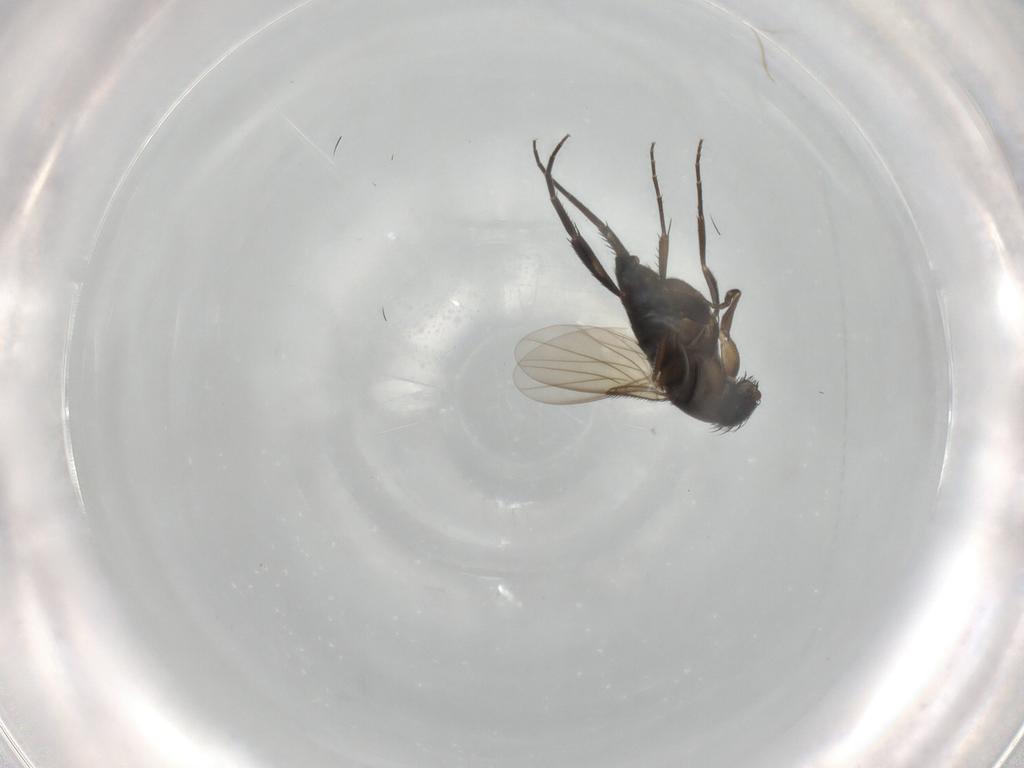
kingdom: Animalia
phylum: Arthropoda
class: Insecta
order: Diptera
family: Phoridae
